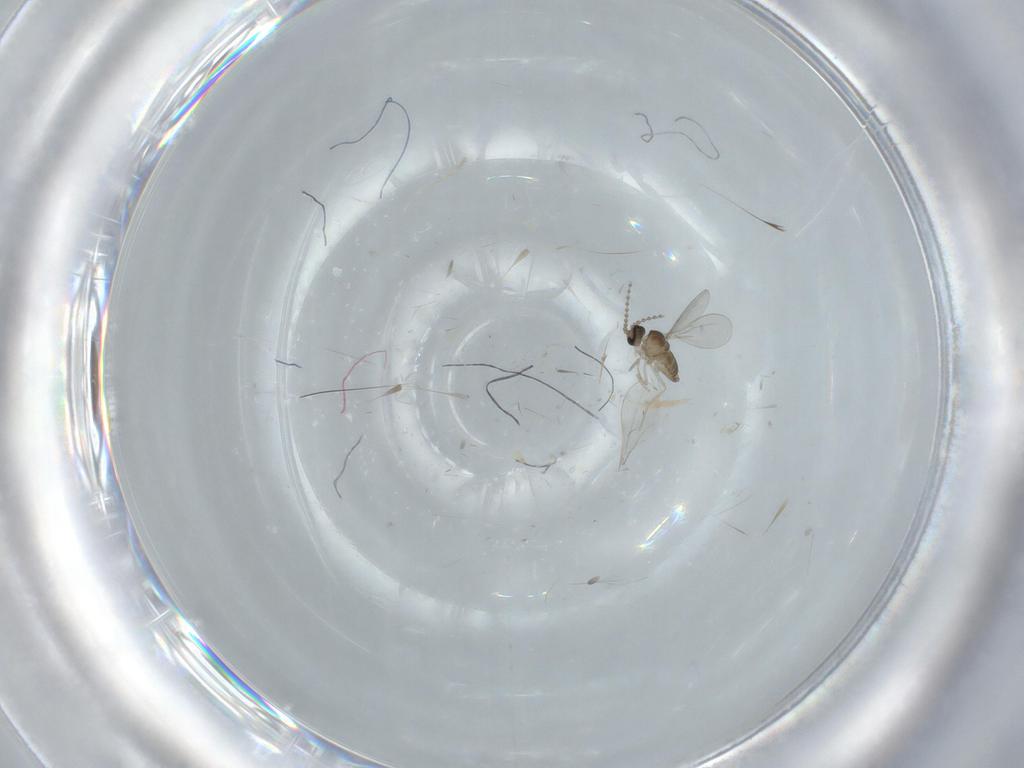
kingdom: Animalia
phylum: Arthropoda
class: Insecta
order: Diptera
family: Cecidomyiidae
